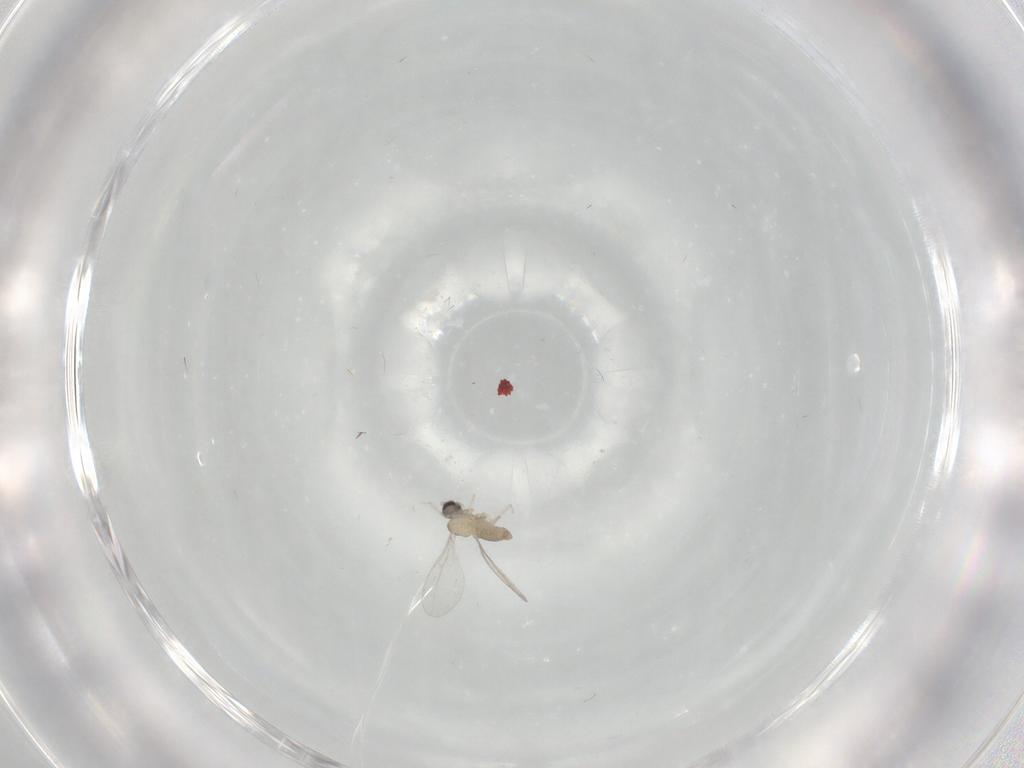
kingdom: Animalia
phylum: Arthropoda
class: Insecta
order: Diptera
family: Cecidomyiidae
